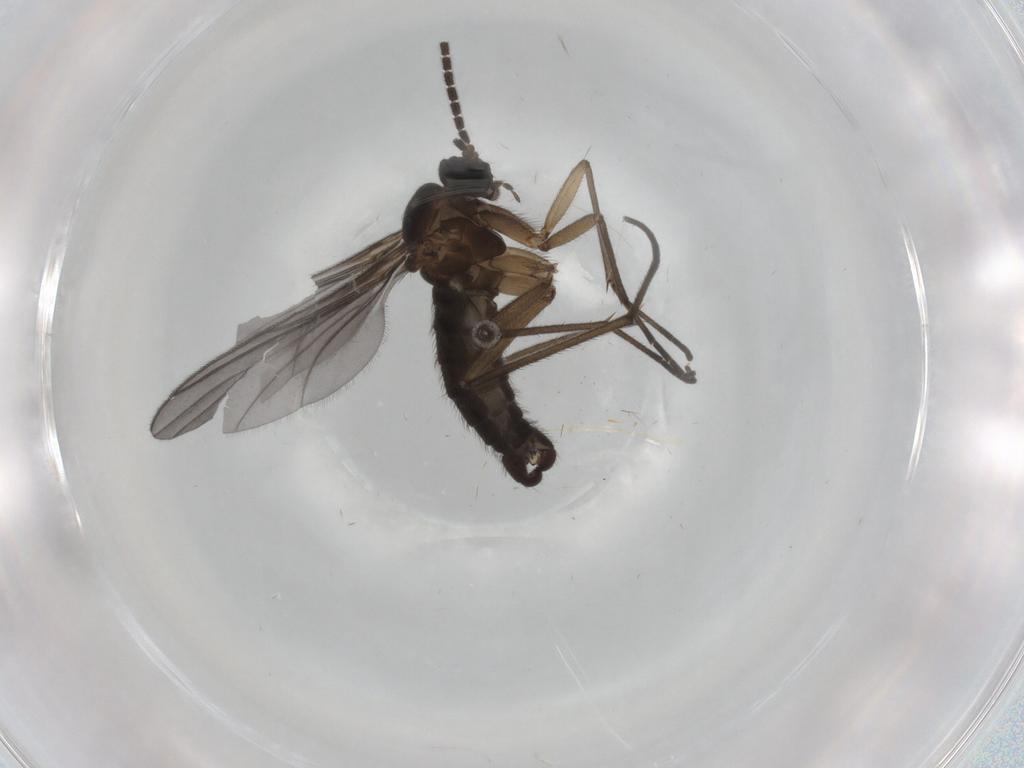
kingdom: Animalia
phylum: Arthropoda
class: Insecta
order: Diptera
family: Sciaridae
